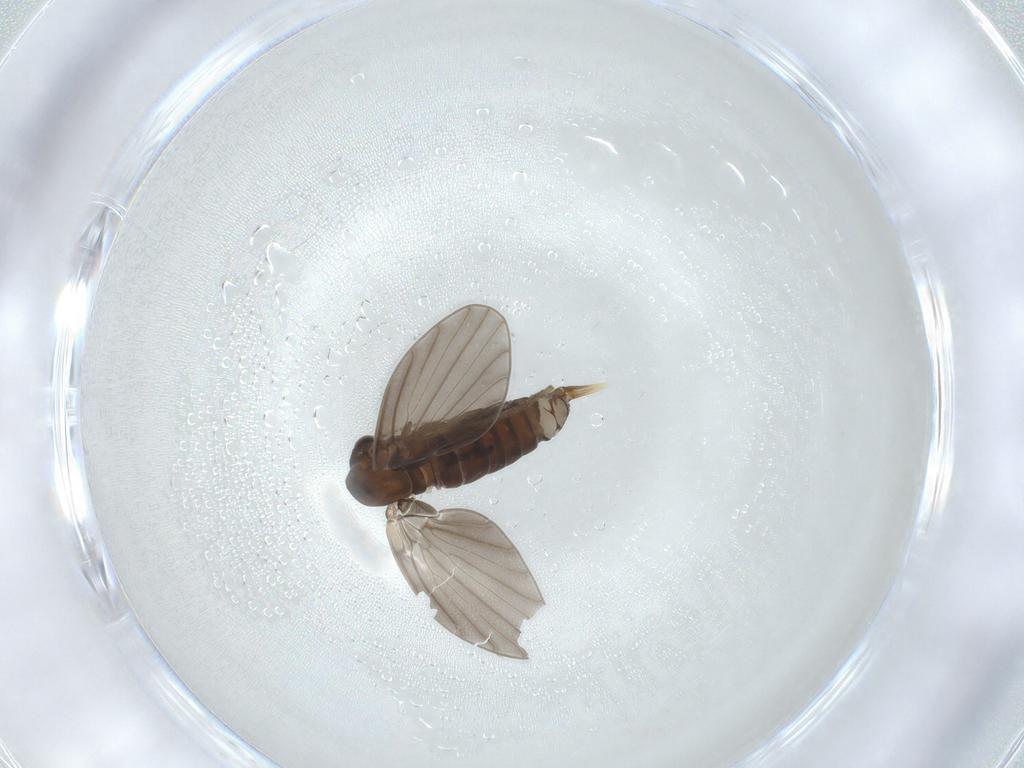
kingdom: Animalia
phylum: Arthropoda
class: Insecta
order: Diptera
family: Psychodidae
